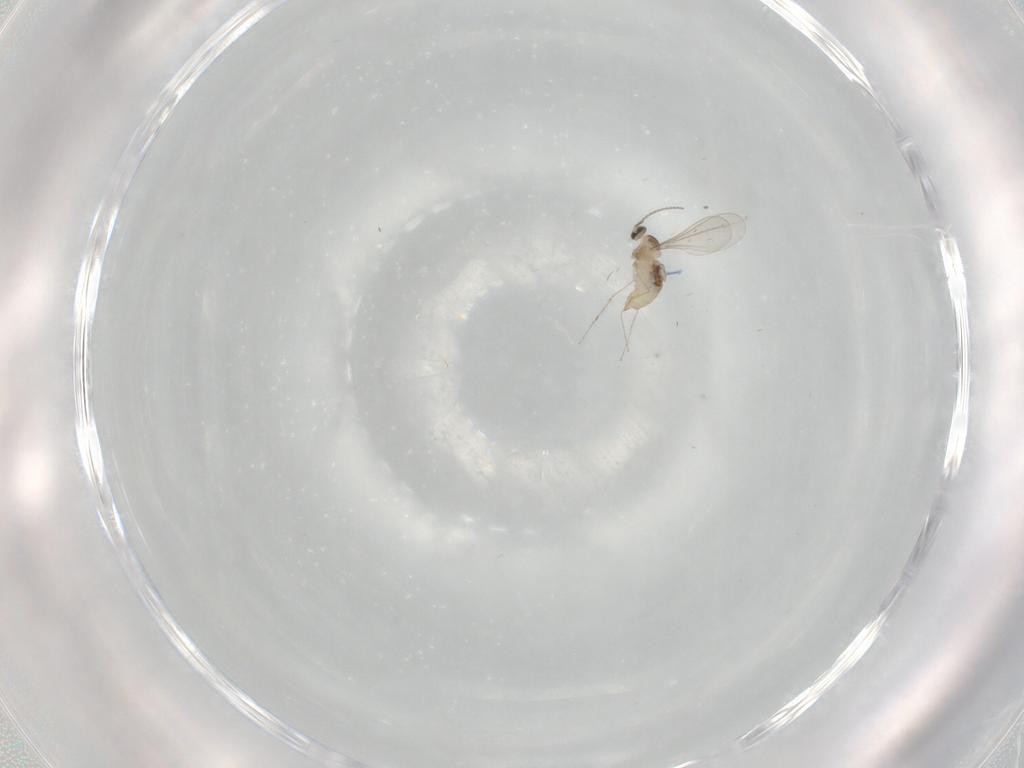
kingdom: Animalia
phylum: Arthropoda
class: Insecta
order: Diptera
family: Cecidomyiidae
